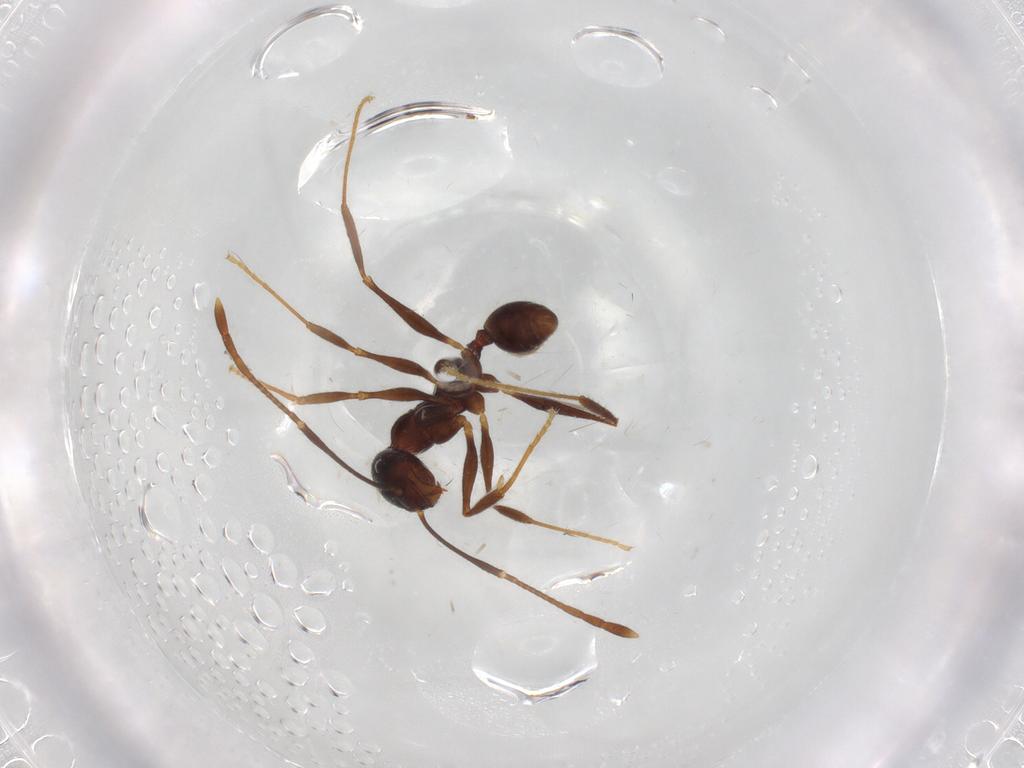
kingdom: Animalia
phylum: Arthropoda
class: Insecta
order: Hymenoptera
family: Formicidae
